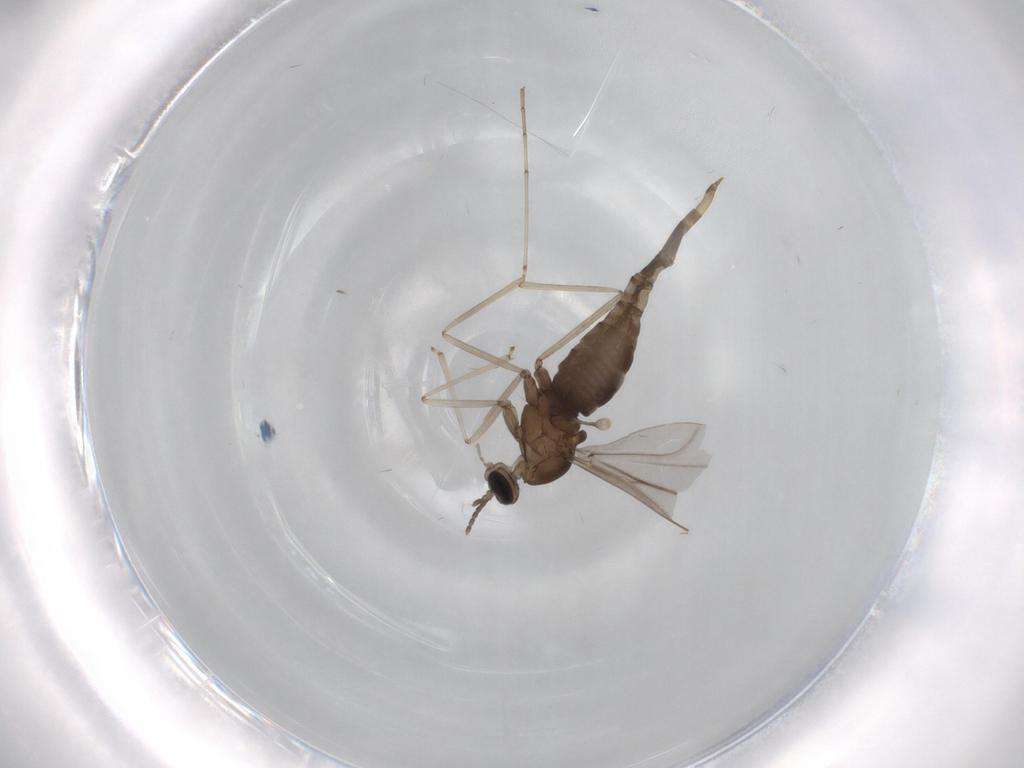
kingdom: Animalia
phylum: Arthropoda
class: Insecta
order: Diptera
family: Cecidomyiidae
